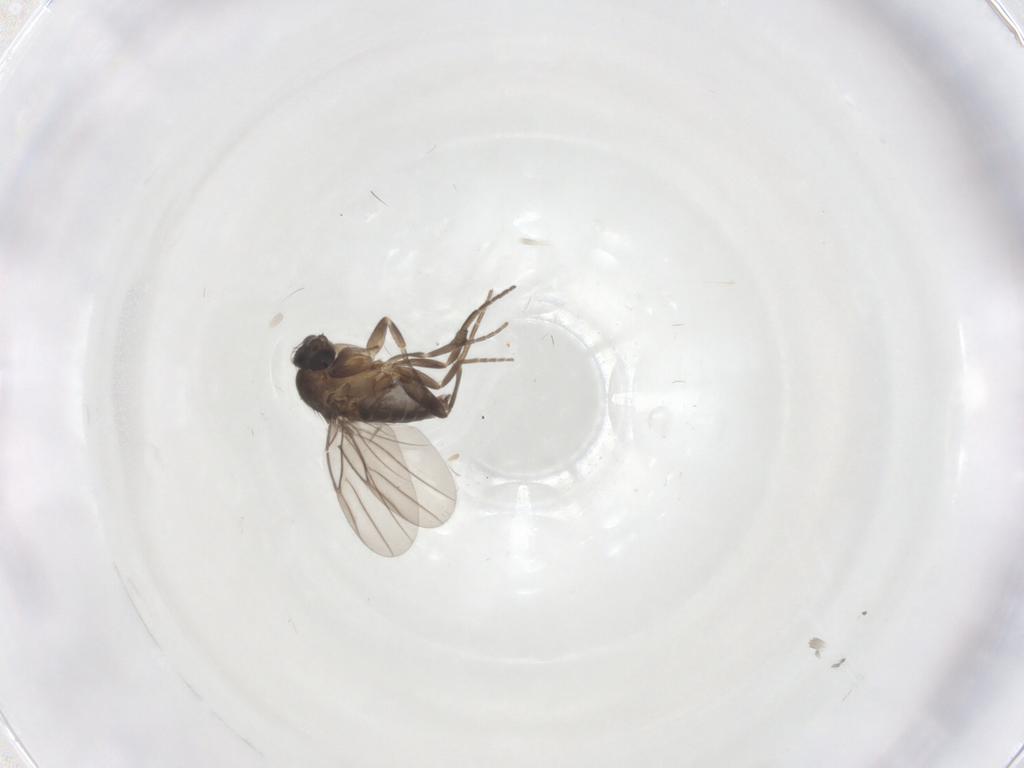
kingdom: Animalia
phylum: Arthropoda
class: Insecta
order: Diptera
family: Phoridae
